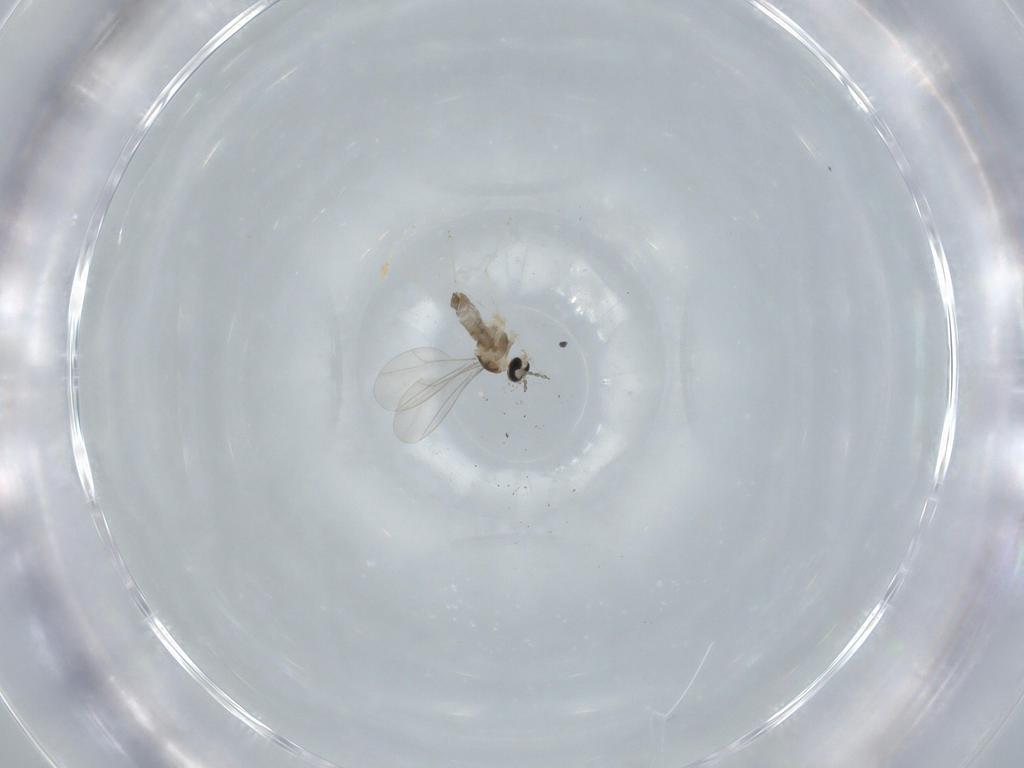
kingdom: Animalia
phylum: Arthropoda
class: Insecta
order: Diptera
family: Cecidomyiidae
